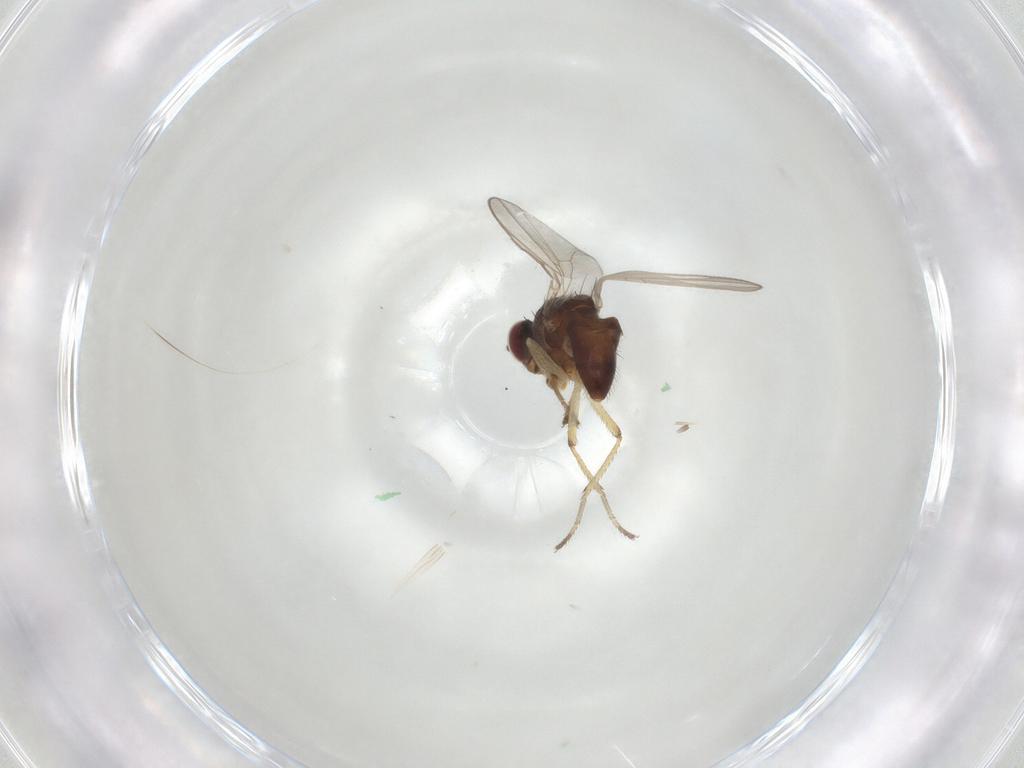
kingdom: Animalia
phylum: Arthropoda
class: Insecta
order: Diptera
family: Ephydridae
